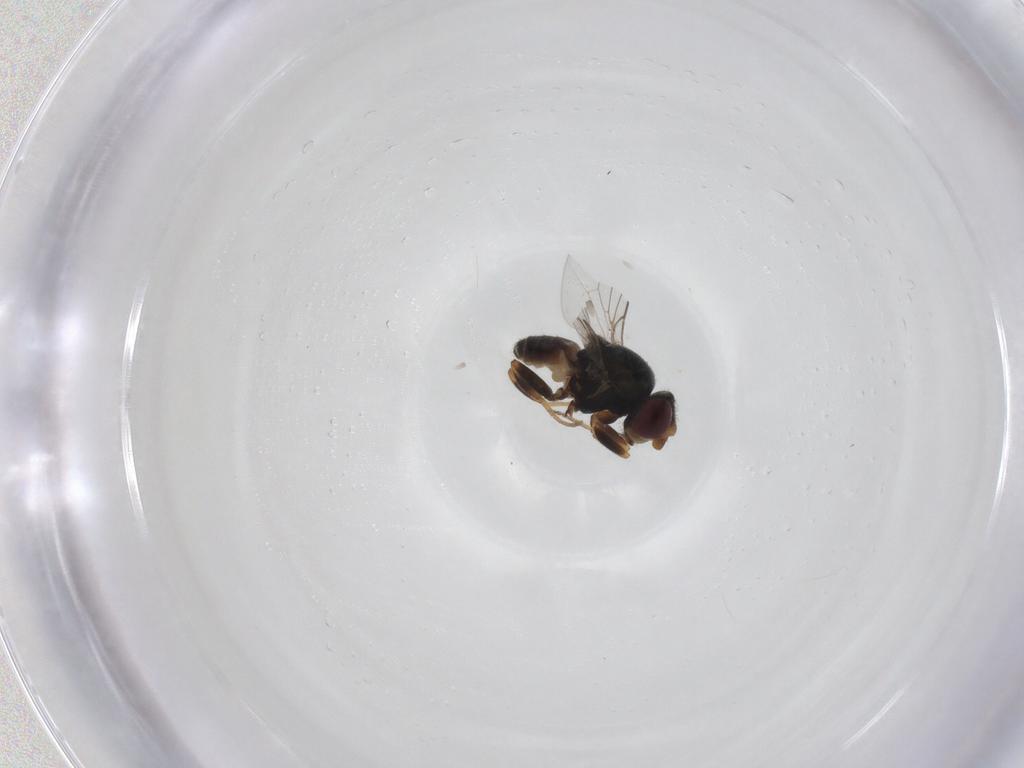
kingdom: Animalia
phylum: Arthropoda
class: Insecta
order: Diptera
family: Chloropidae
